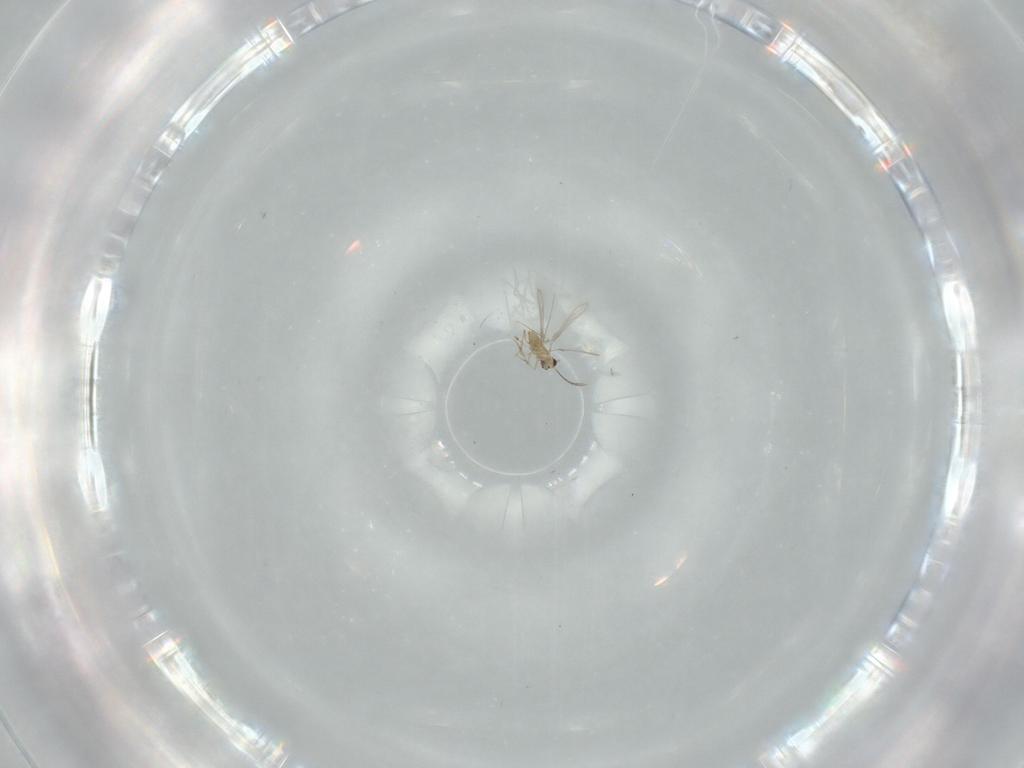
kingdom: Animalia
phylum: Arthropoda
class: Insecta
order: Hymenoptera
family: Mymaridae
